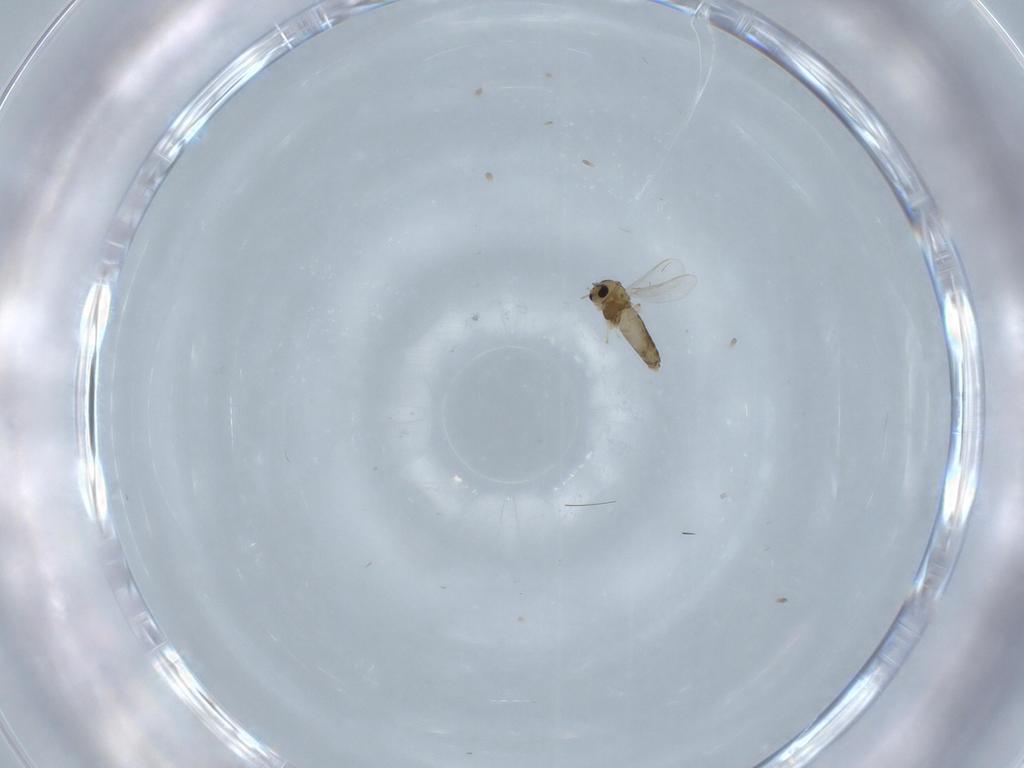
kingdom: Animalia
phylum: Arthropoda
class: Insecta
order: Diptera
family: Chironomidae
